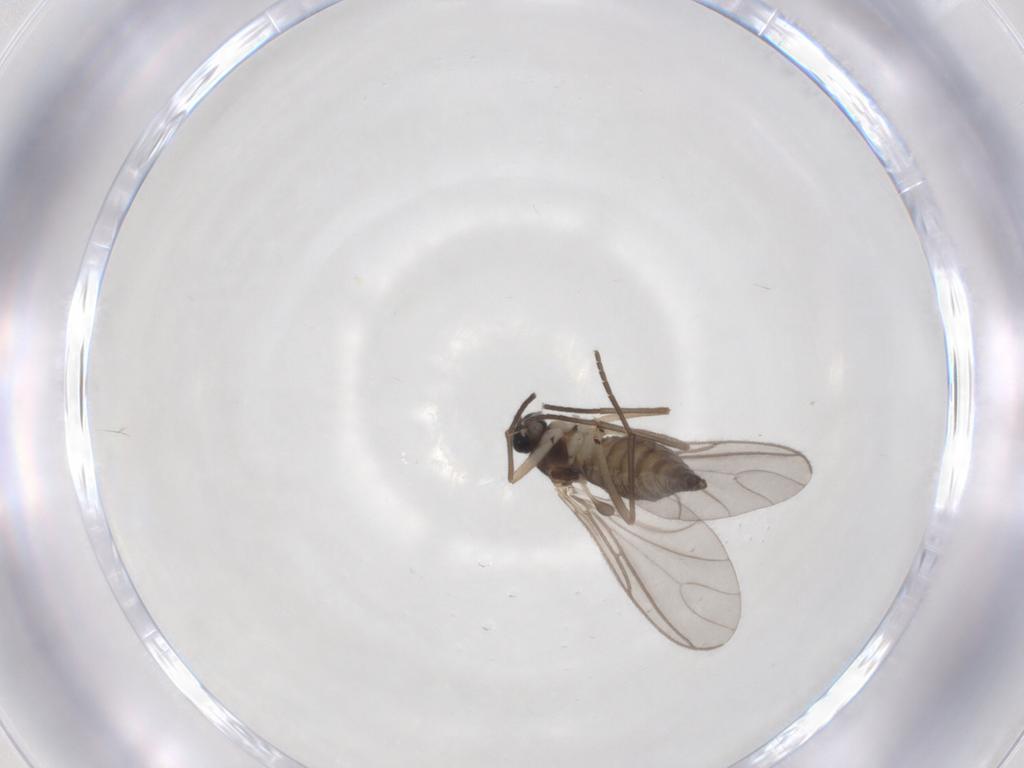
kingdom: Animalia
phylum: Arthropoda
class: Insecta
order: Diptera
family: Sciaridae
